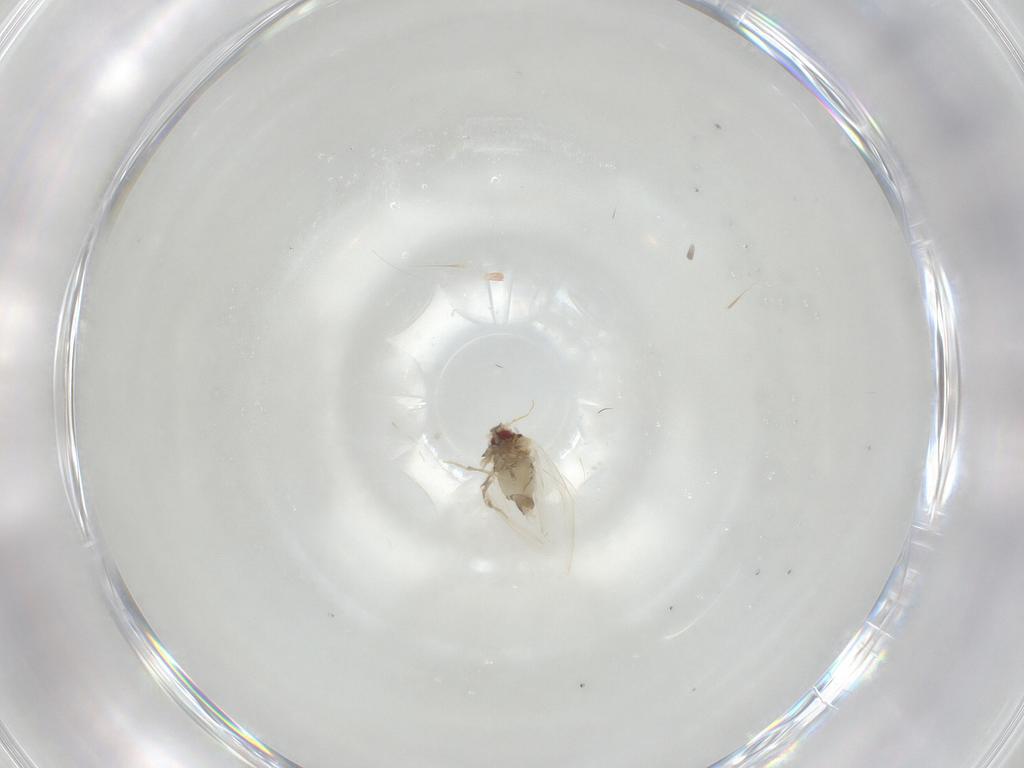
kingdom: Animalia
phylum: Arthropoda
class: Insecta
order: Hemiptera
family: Aleyrodidae
